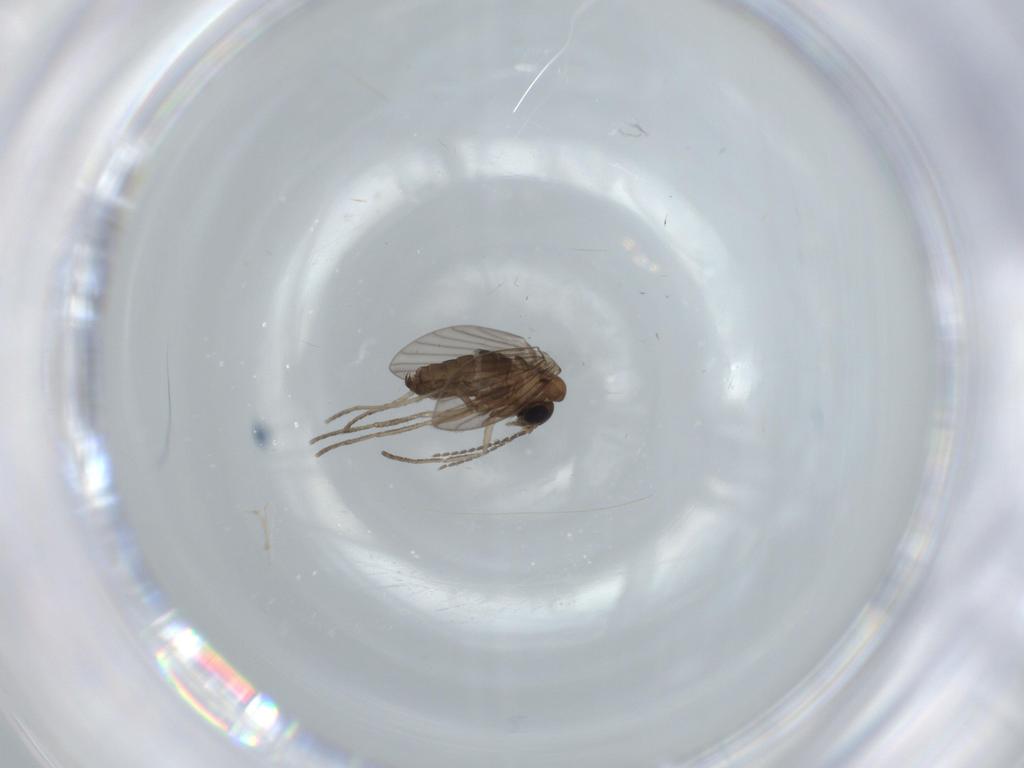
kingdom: Animalia
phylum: Arthropoda
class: Insecta
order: Diptera
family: Psychodidae
